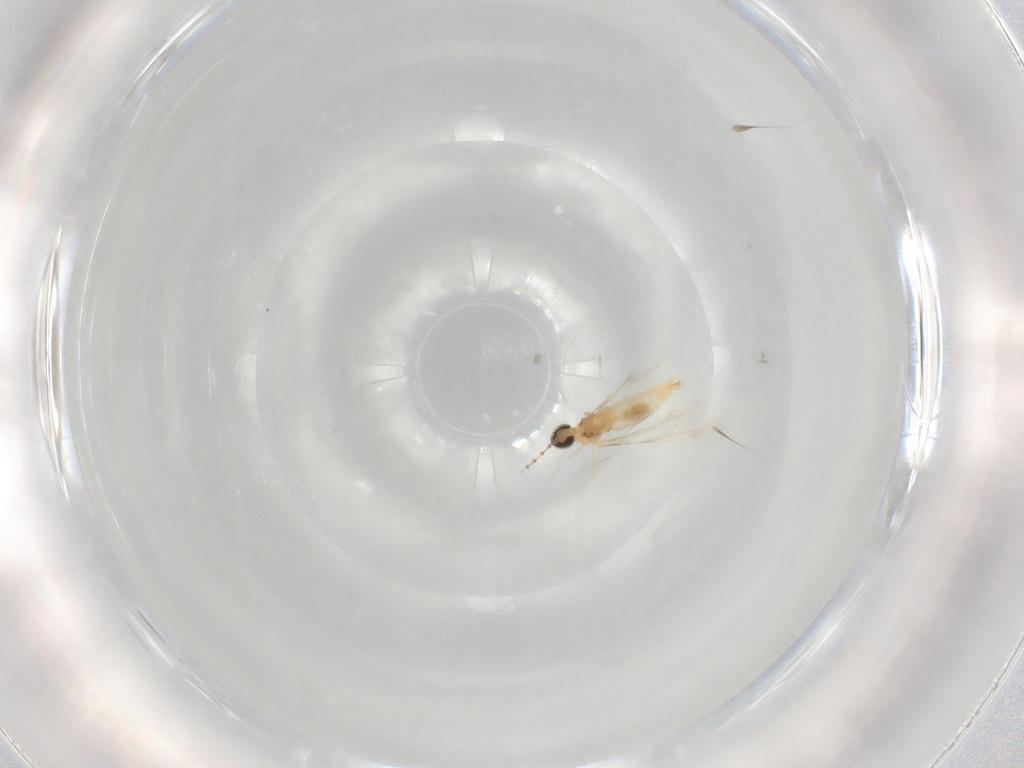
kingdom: Animalia
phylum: Arthropoda
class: Insecta
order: Diptera
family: Cecidomyiidae
